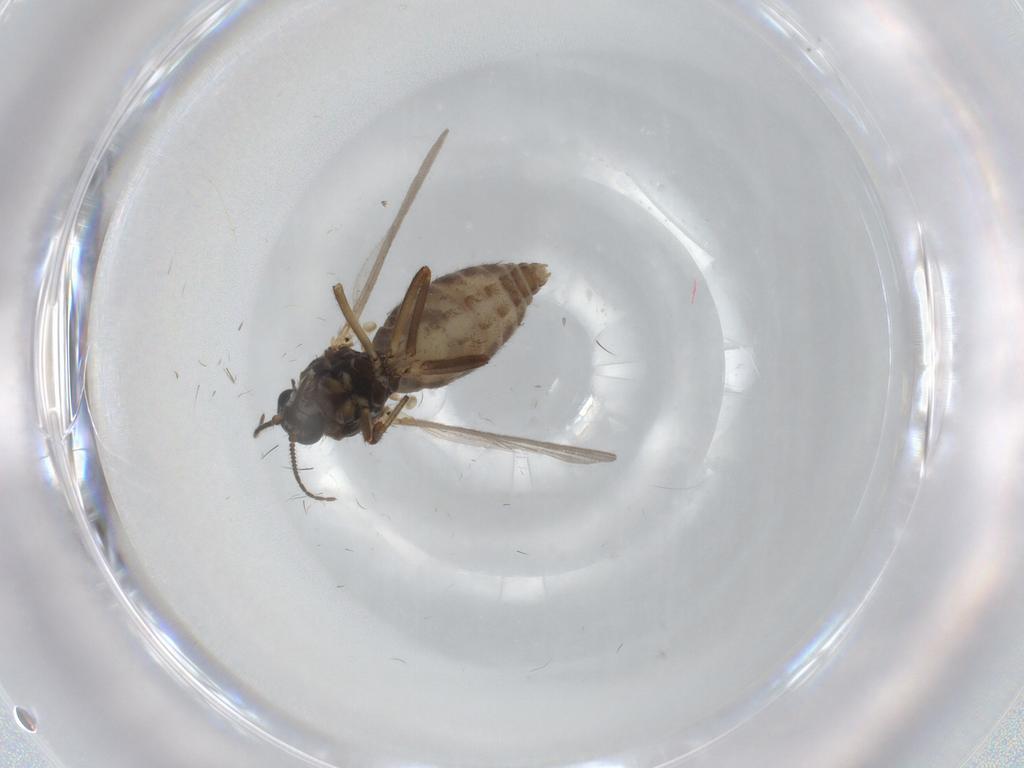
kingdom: Animalia
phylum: Arthropoda
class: Insecta
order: Diptera
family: Ceratopogonidae
